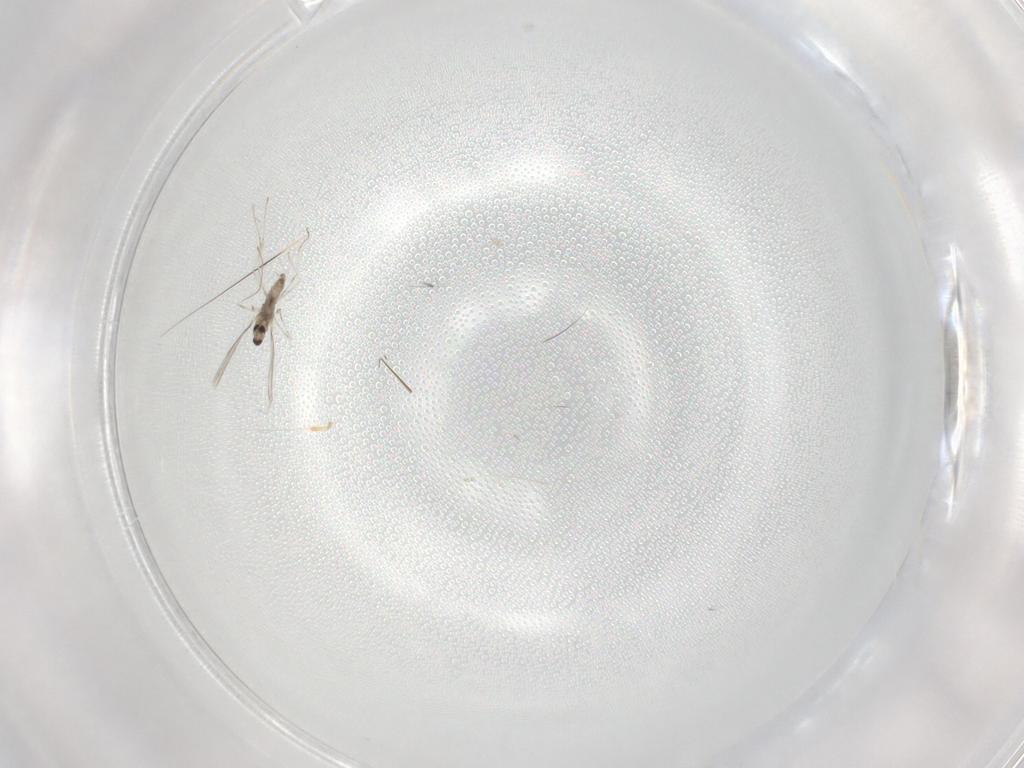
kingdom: Animalia
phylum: Arthropoda
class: Insecta
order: Diptera
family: Cecidomyiidae
